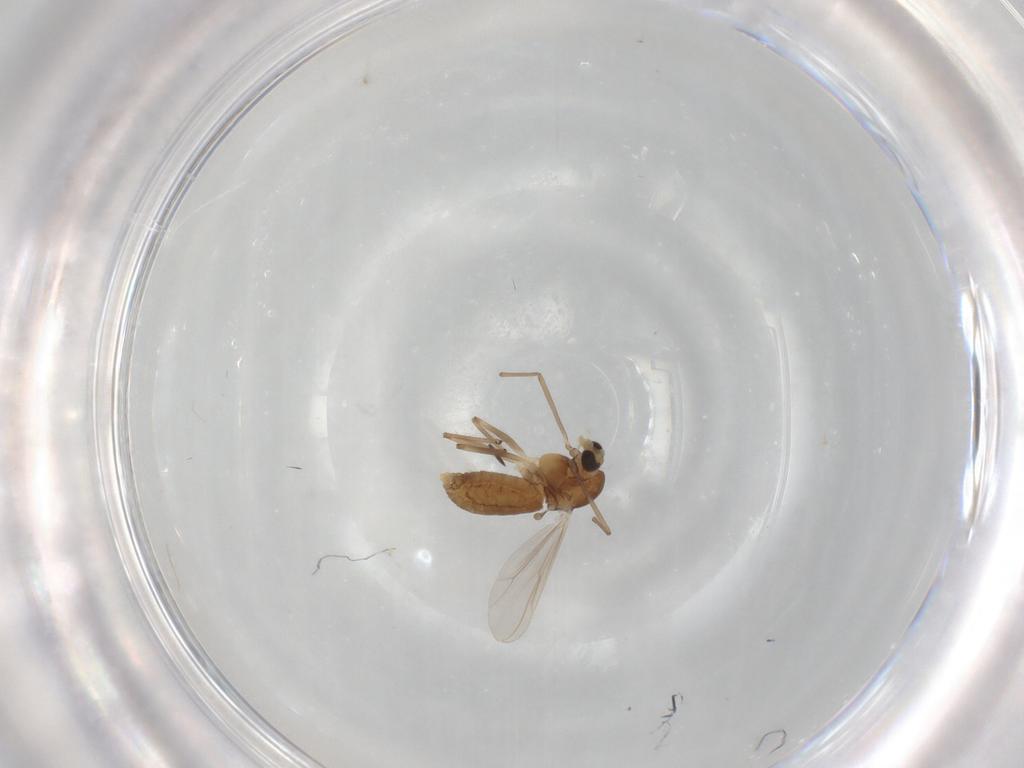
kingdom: Animalia
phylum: Arthropoda
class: Insecta
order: Diptera
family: Chironomidae
